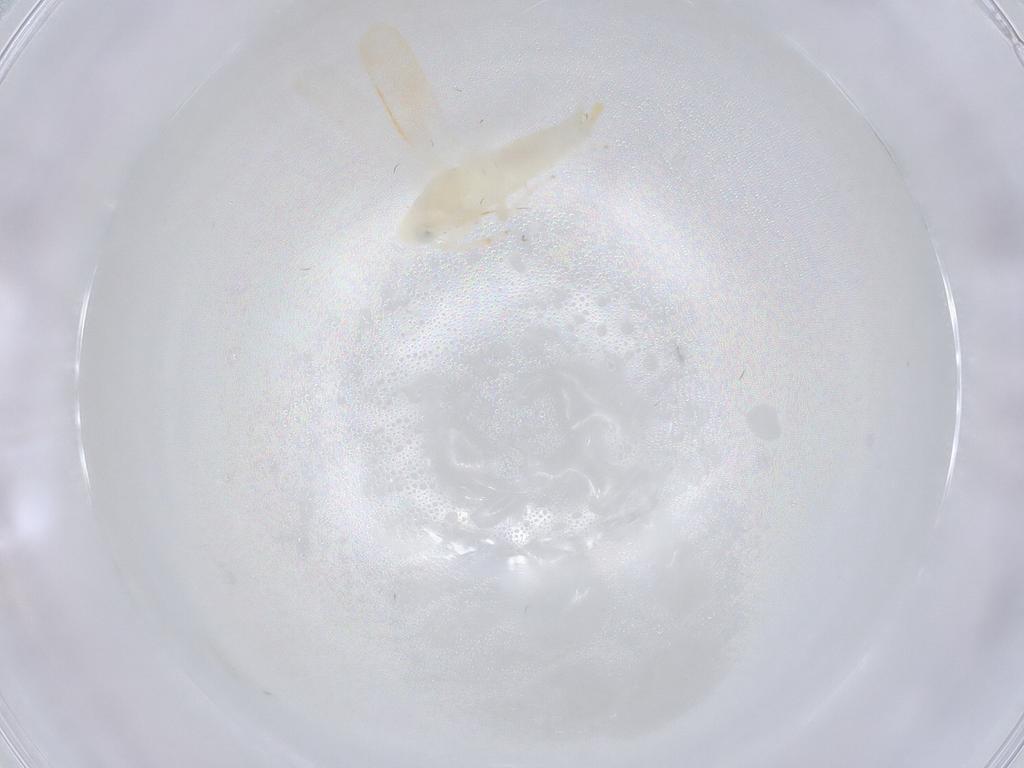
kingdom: Animalia
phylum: Arthropoda
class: Insecta
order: Hemiptera
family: Cicadellidae
